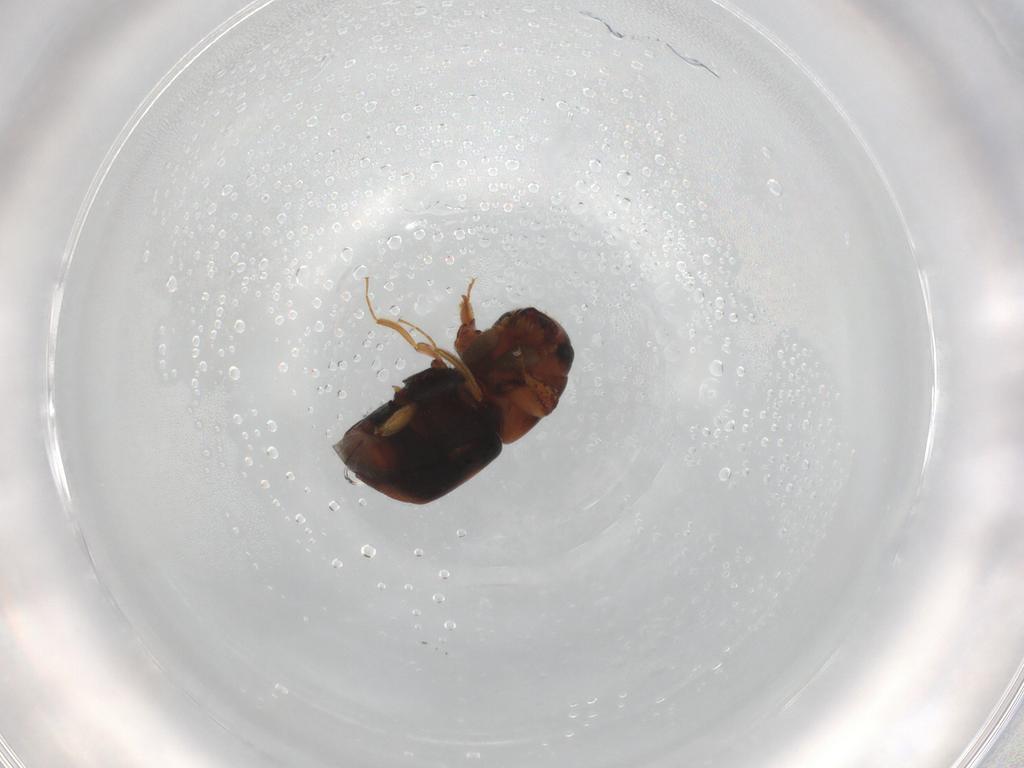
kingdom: Animalia
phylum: Arthropoda
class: Insecta
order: Coleoptera
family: Curculionidae
